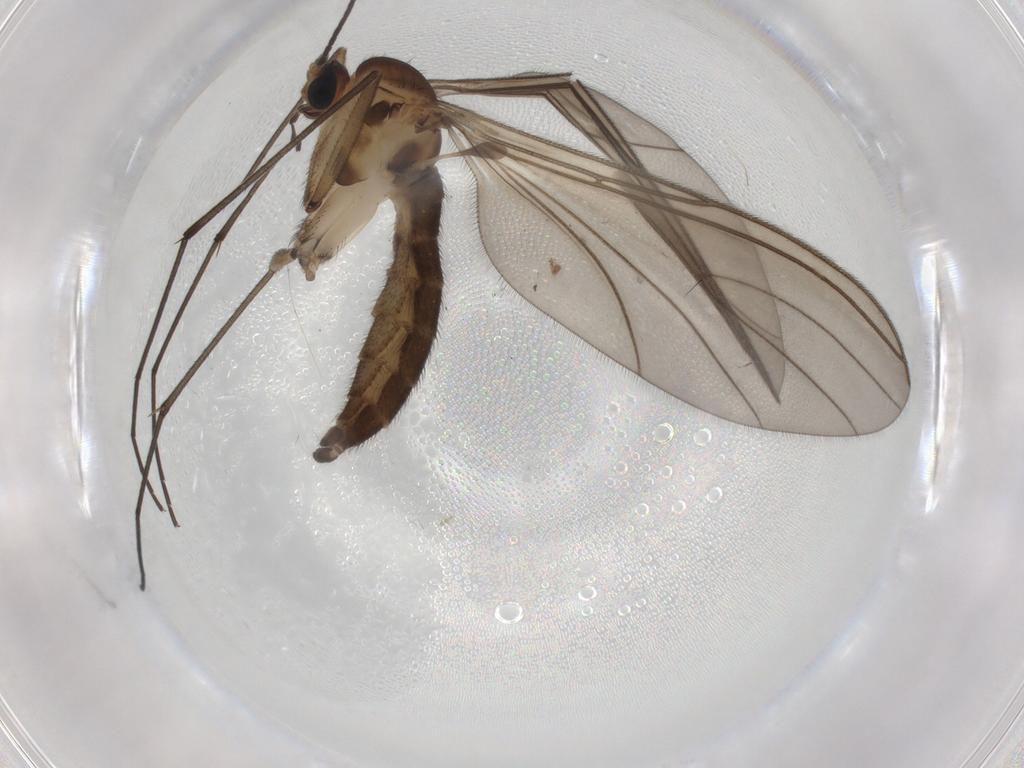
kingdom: Animalia
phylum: Arthropoda
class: Insecta
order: Diptera
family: Sciaridae
